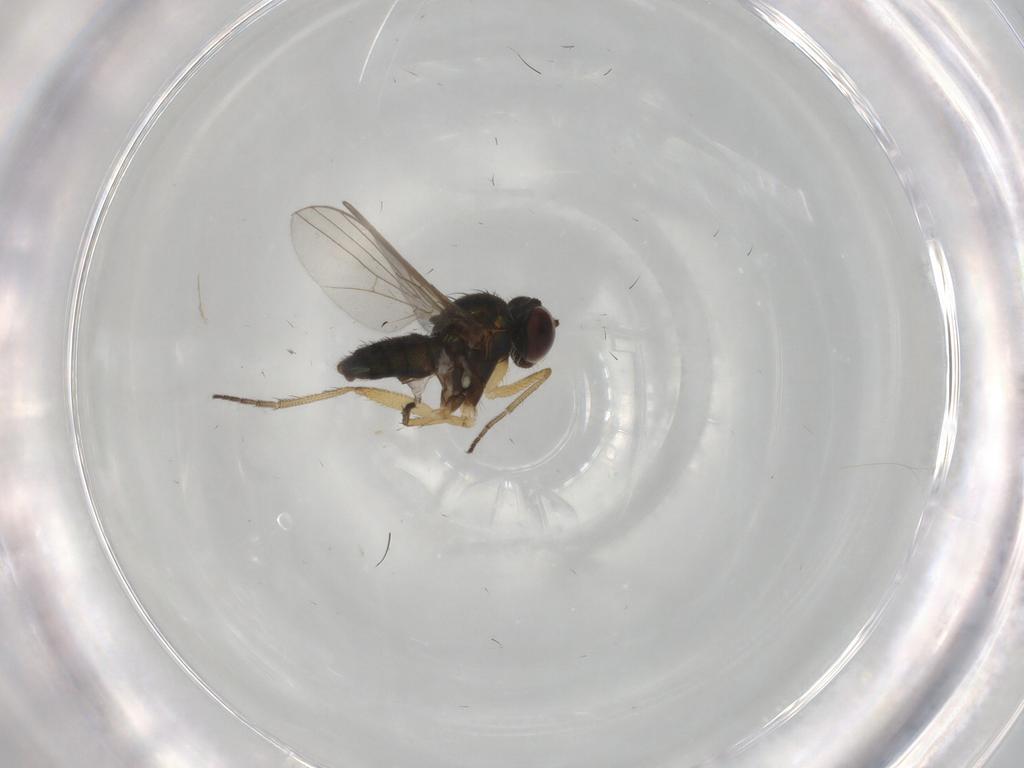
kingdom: Animalia
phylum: Arthropoda
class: Insecta
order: Diptera
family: Dolichopodidae
